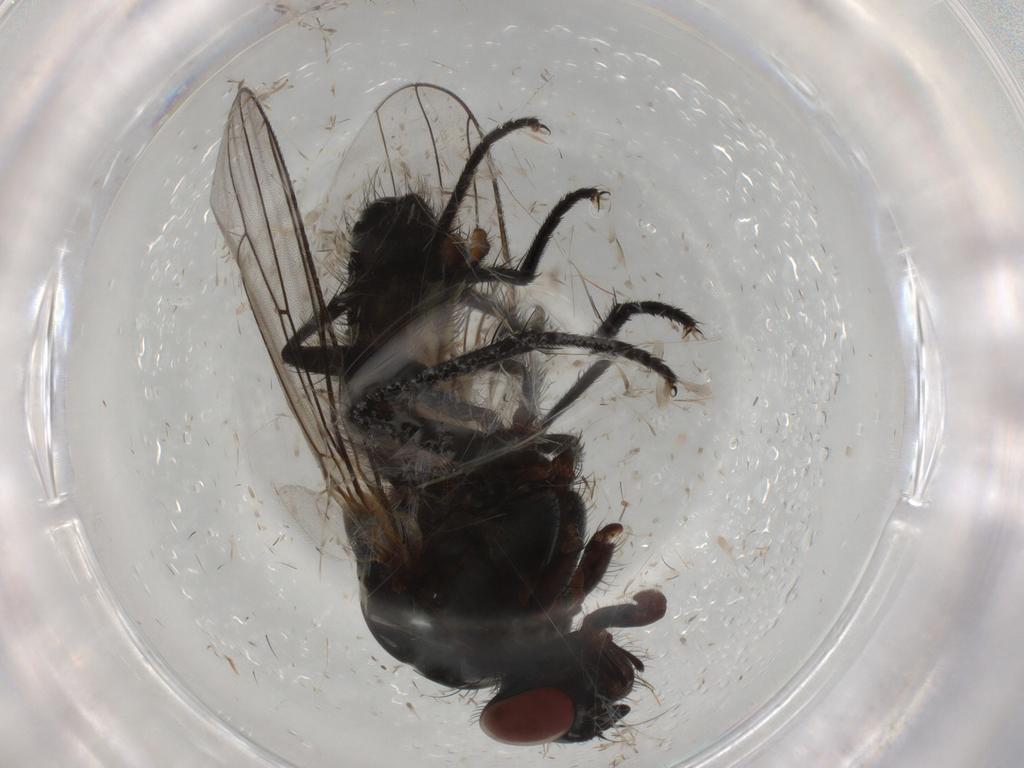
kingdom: Animalia
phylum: Arthropoda
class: Insecta
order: Diptera
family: Anthomyiidae
